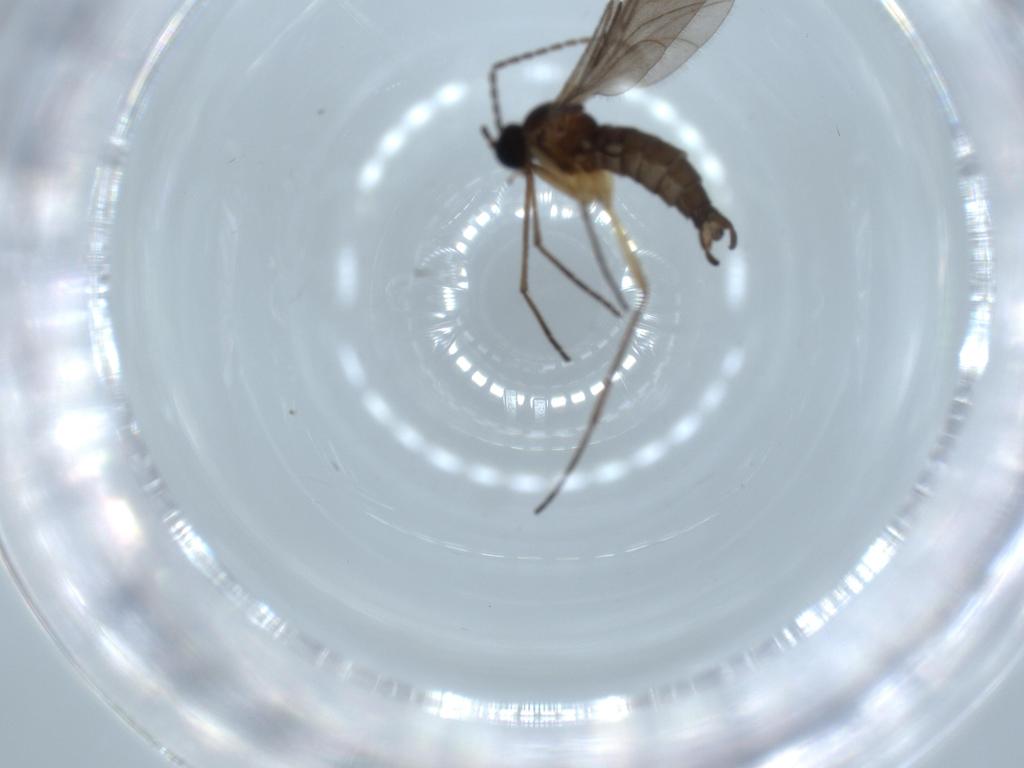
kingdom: Animalia
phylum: Arthropoda
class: Insecta
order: Diptera
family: Sciaridae
